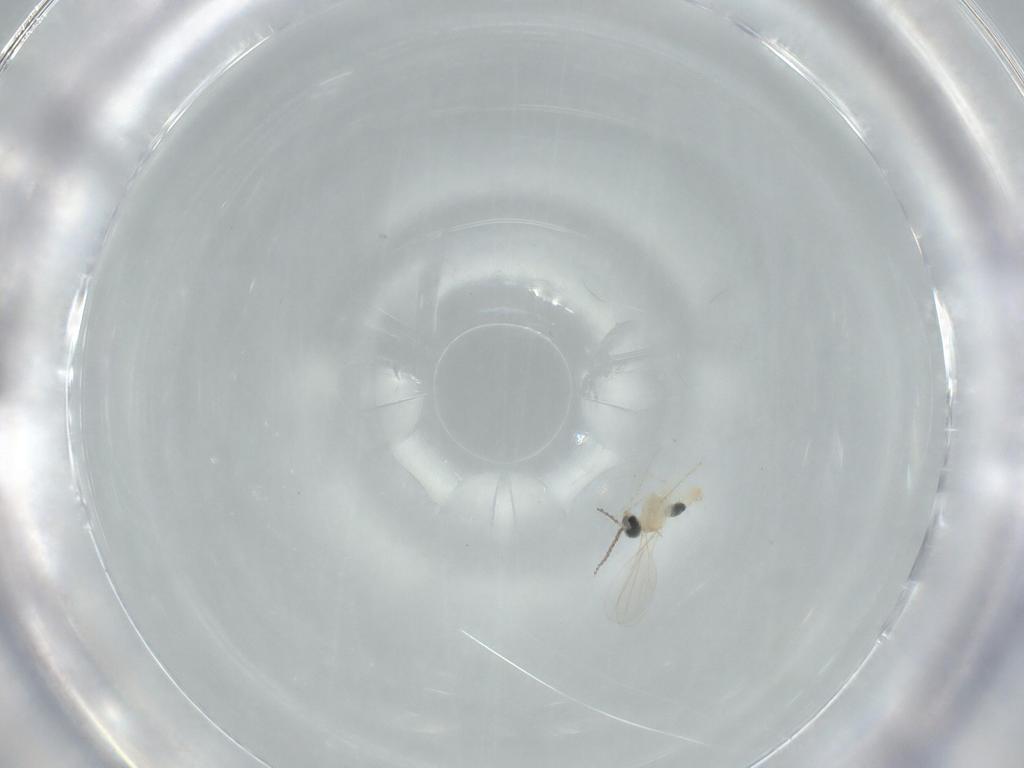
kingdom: Animalia
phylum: Arthropoda
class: Insecta
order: Diptera
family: Cecidomyiidae
